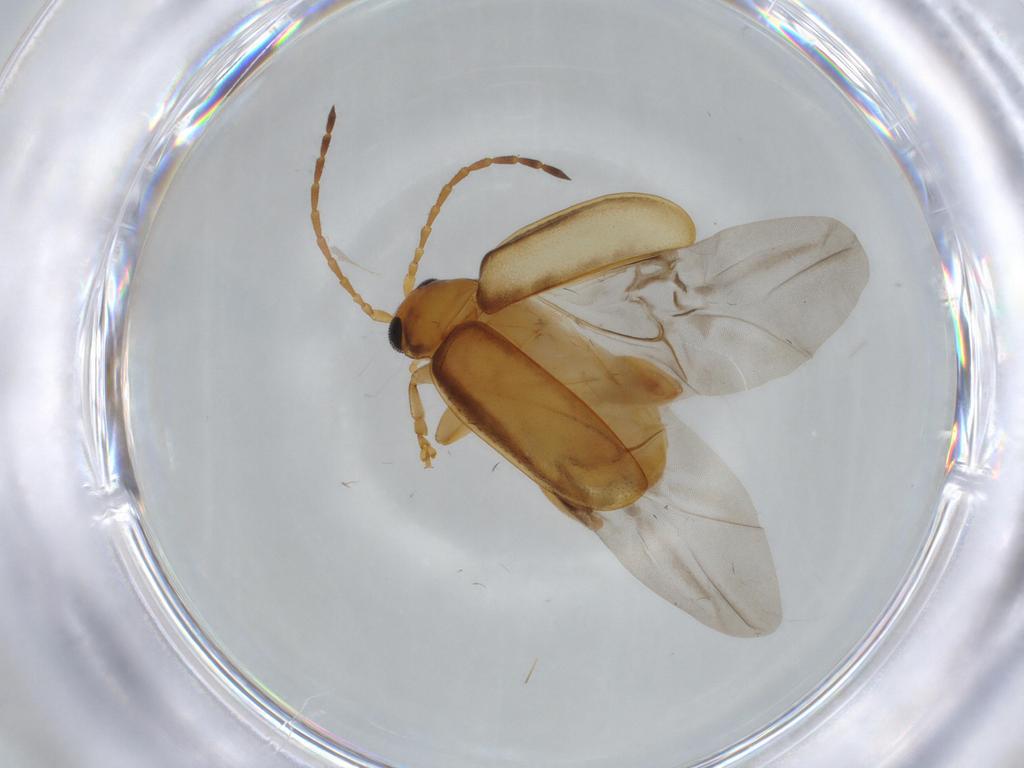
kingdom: Animalia
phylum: Arthropoda
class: Insecta
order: Coleoptera
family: Chrysomelidae
